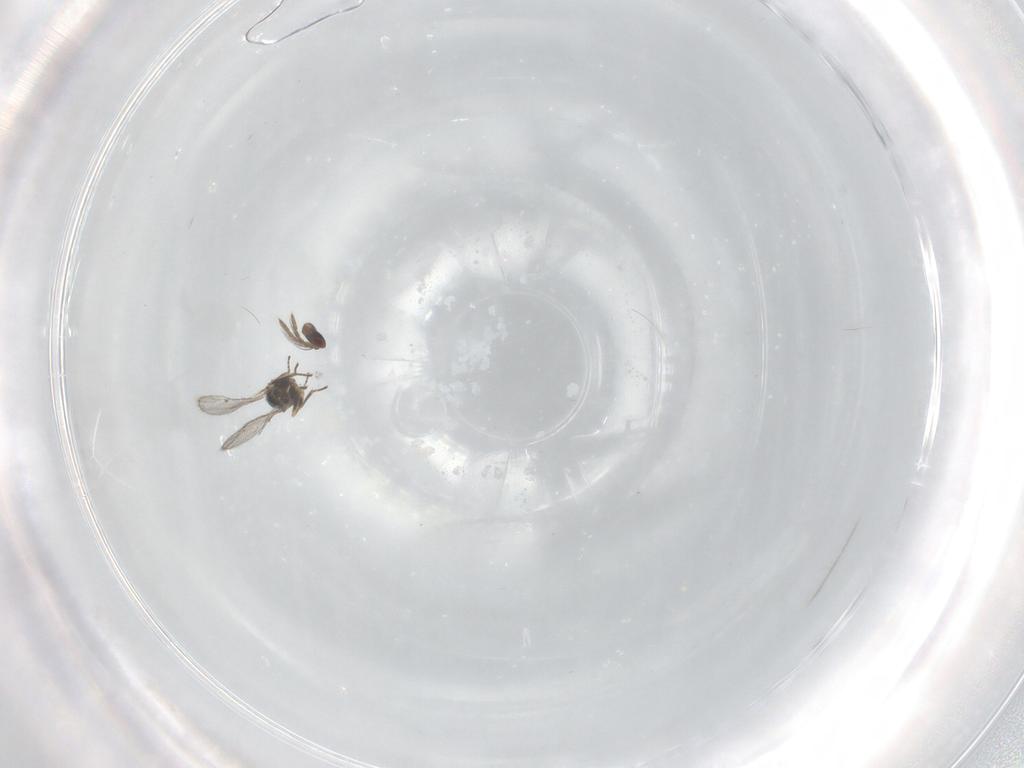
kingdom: Animalia
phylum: Arthropoda
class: Insecta
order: Hymenoptera
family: Eulophidae
